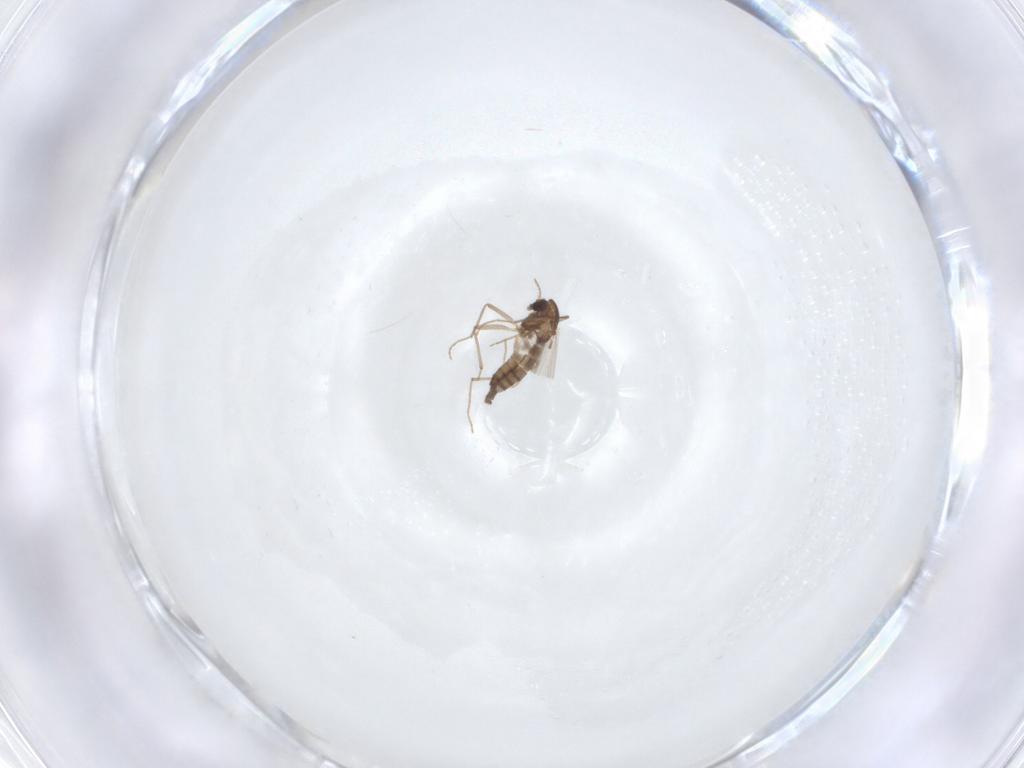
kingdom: Animalia
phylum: Arthropoda
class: Insecta
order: Diptera
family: Chironomidae
